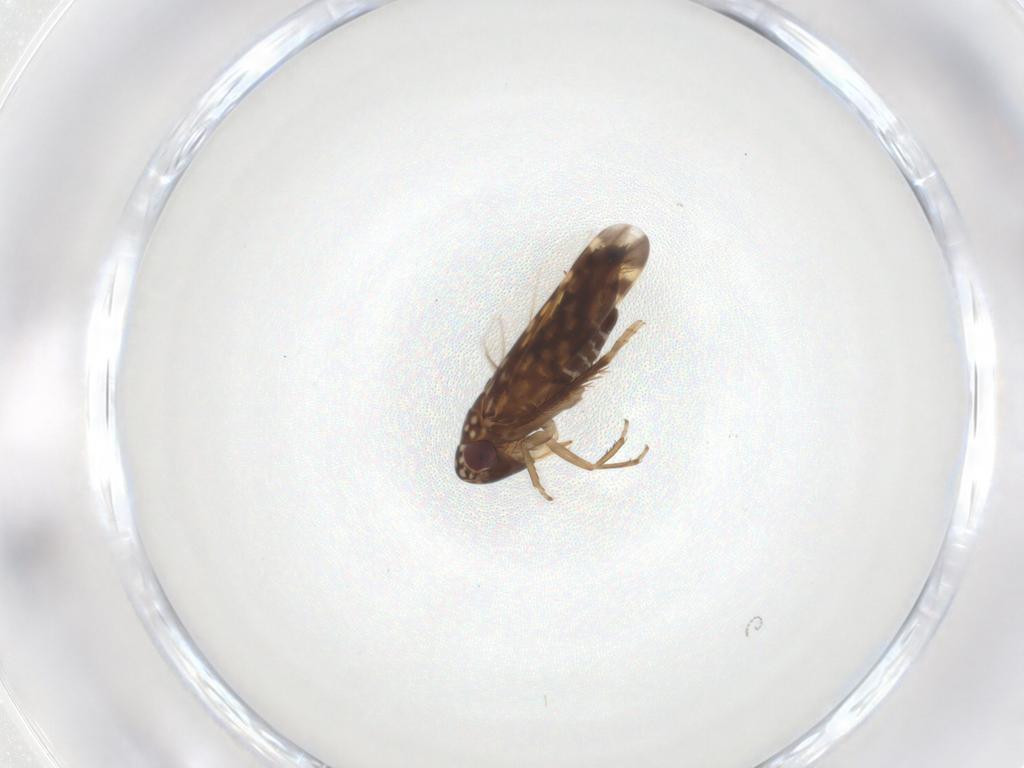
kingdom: Animalia
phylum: Arthropoda
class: Insecta
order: Hemiptera
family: Cicadellidae
